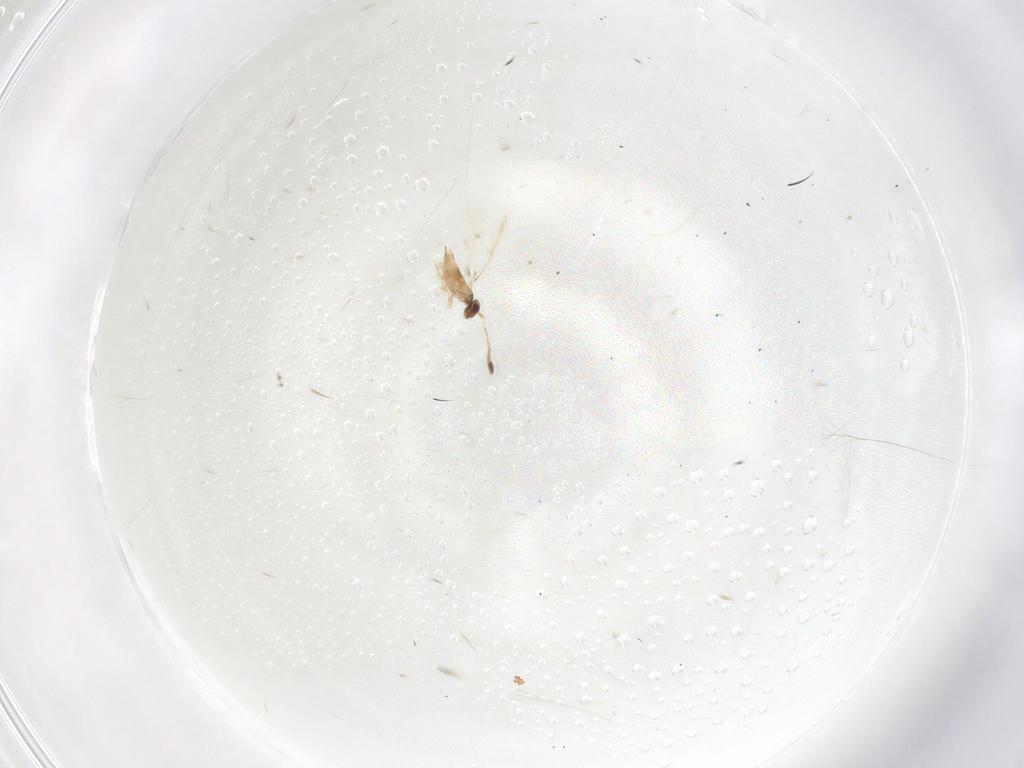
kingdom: Animalia
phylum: Arthropoda
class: Insecta
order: Hymenoptera
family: Mymaridae
